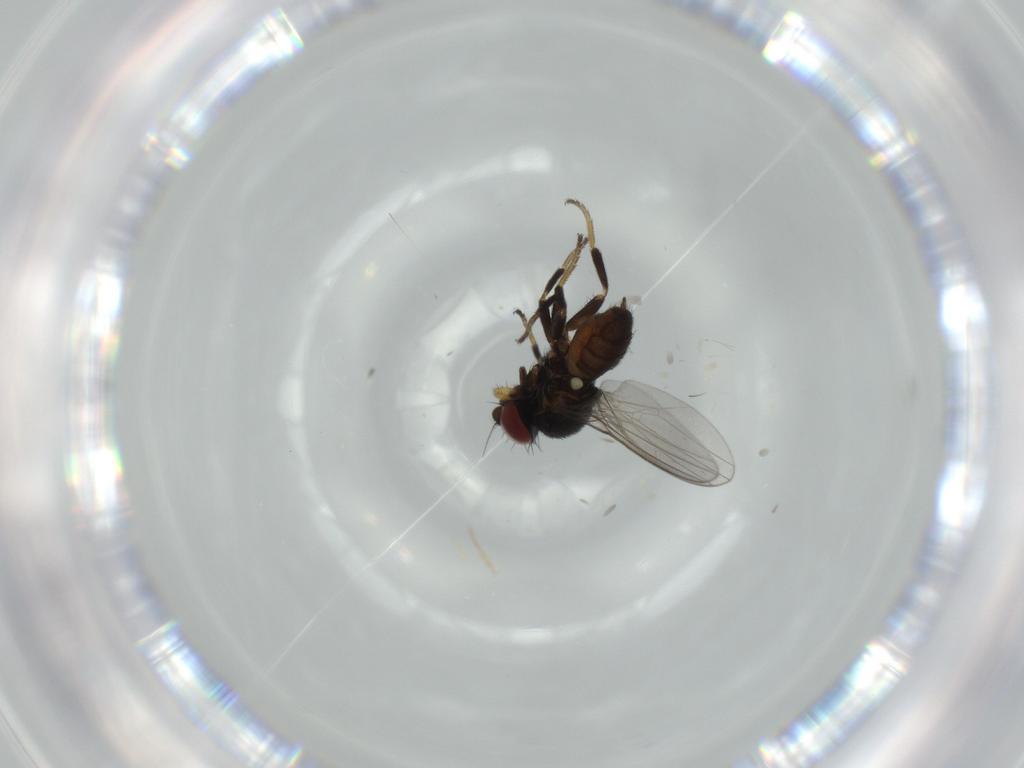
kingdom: Animalia
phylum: Arthropoda
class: Insecta
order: Diptera
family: Milichiidae
